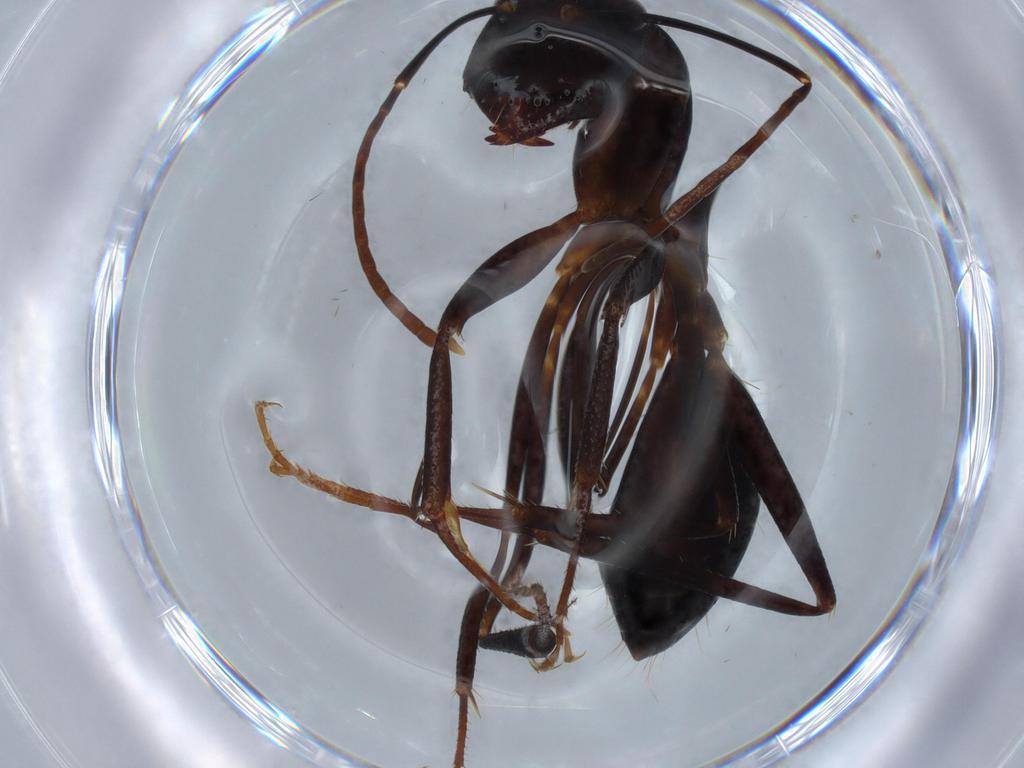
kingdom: Animalia
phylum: Arthropoda
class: Insecta
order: Hymenoptera
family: Formicidae
